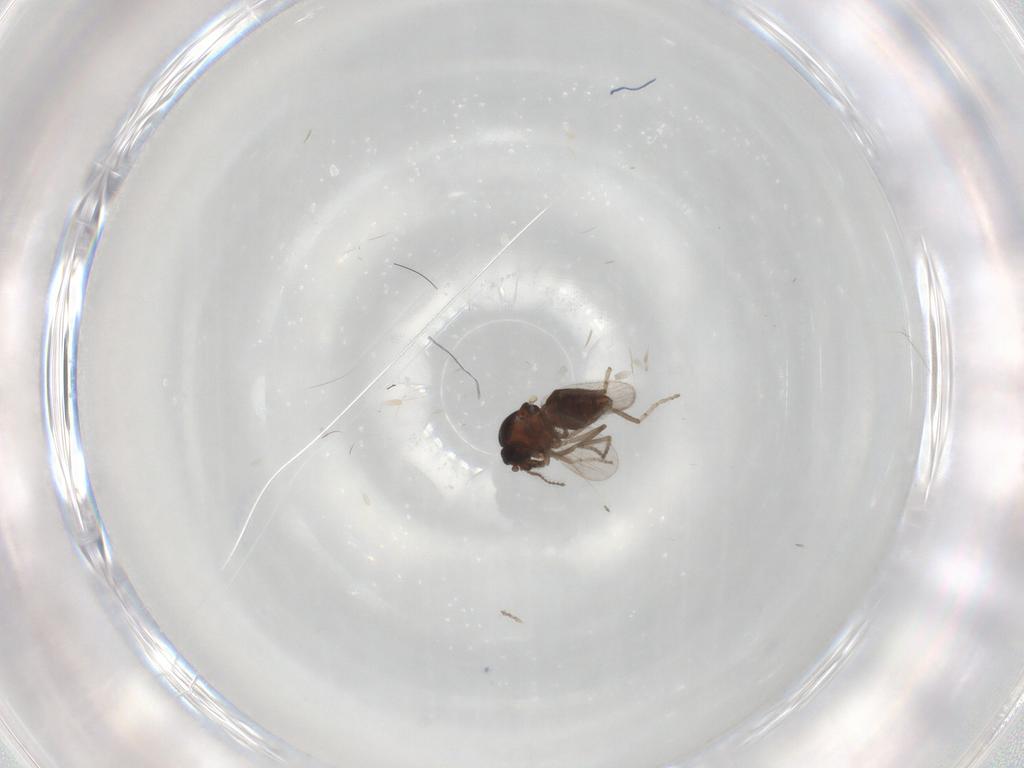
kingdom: Animalia
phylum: Arthropoda
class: Insecta
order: Diptera
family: Ceratopogonidae
